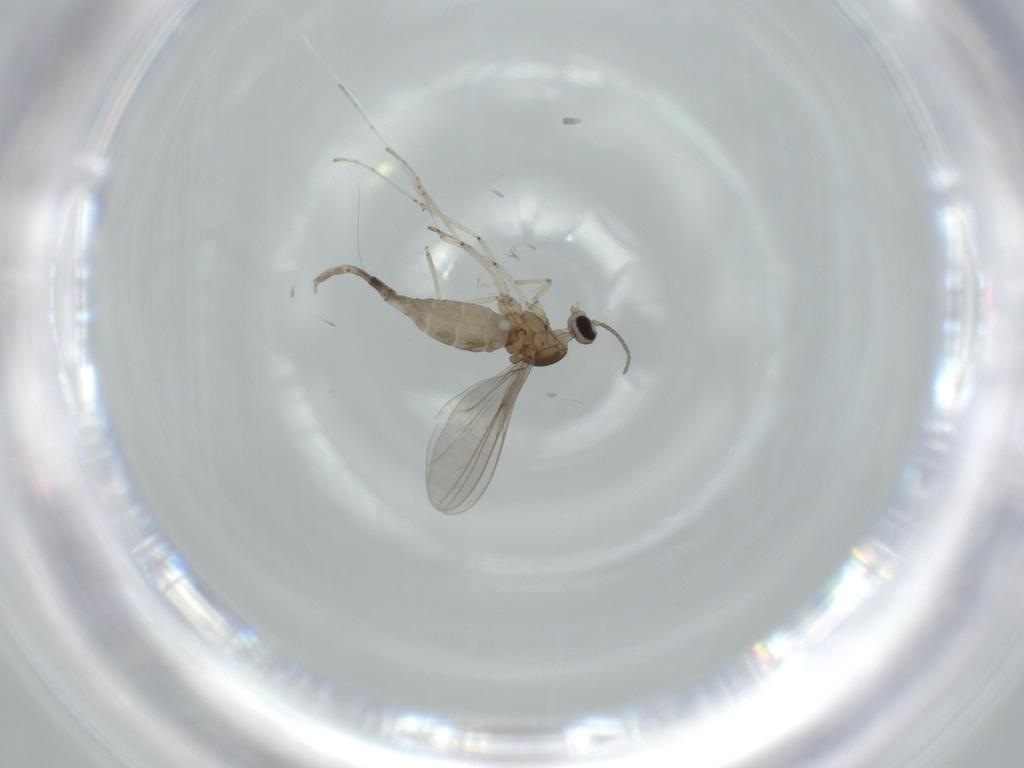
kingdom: Animalia
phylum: Arthropoda
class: Insecta
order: Diptera
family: Cecidomyiidae
